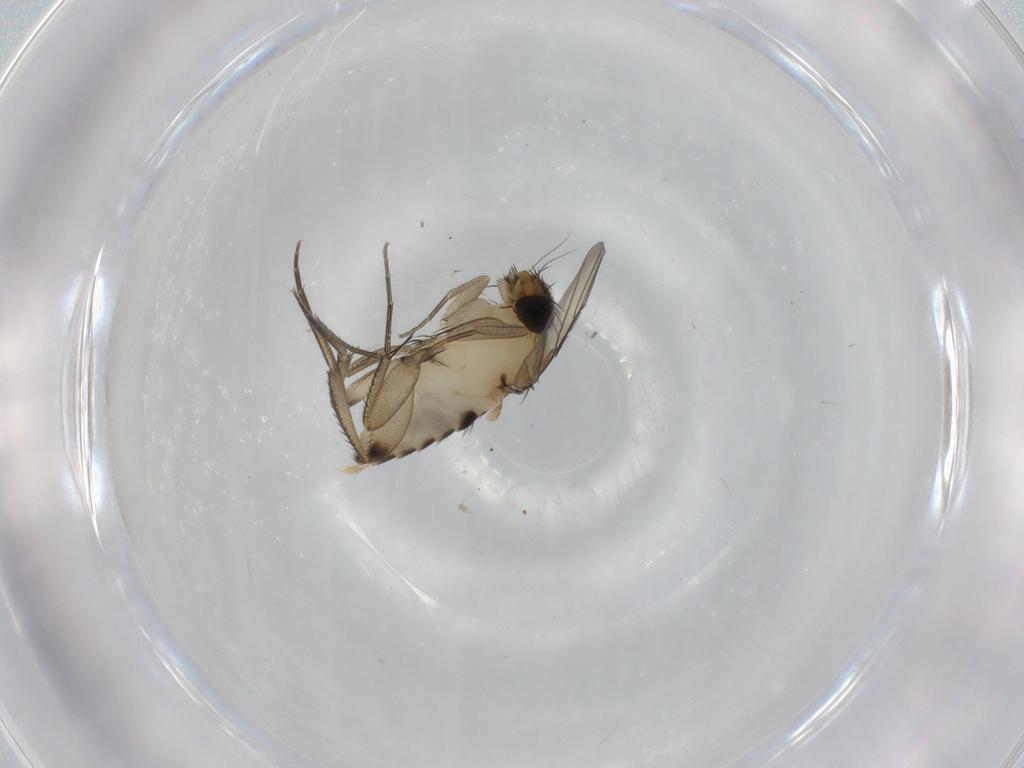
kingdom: Animalia
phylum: Arthropoda
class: Insecta
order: Diptera
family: Phoridae
